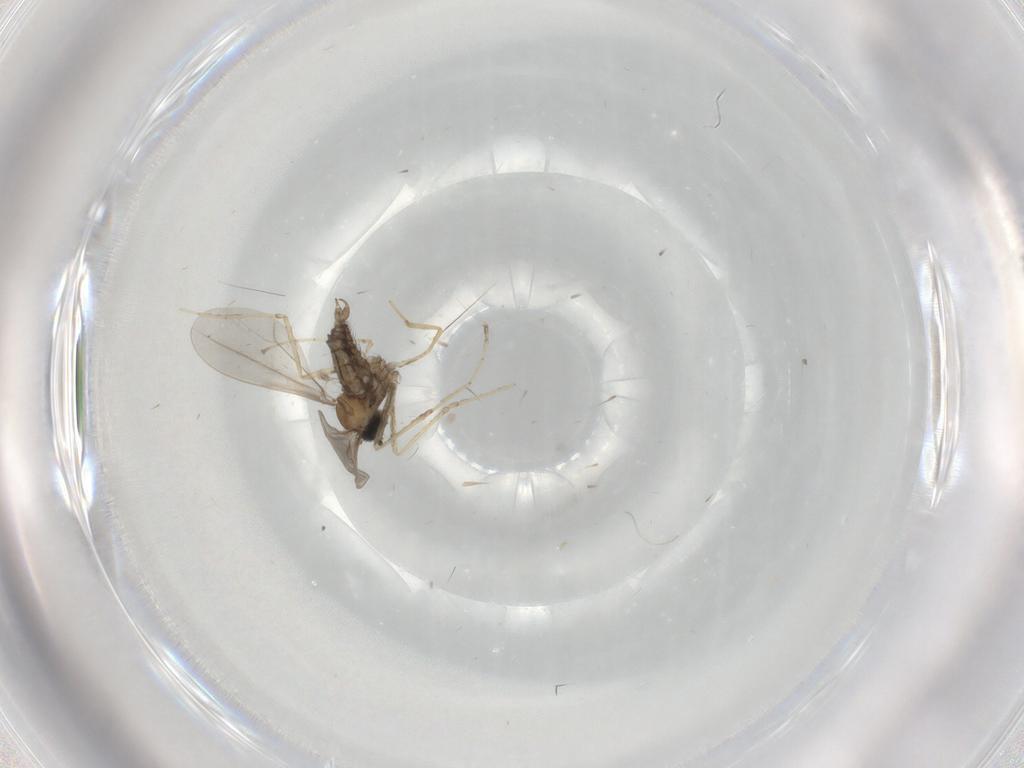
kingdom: Animalia
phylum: Arthropoda
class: Insecta
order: Diptera
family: Cecidomyiidae
